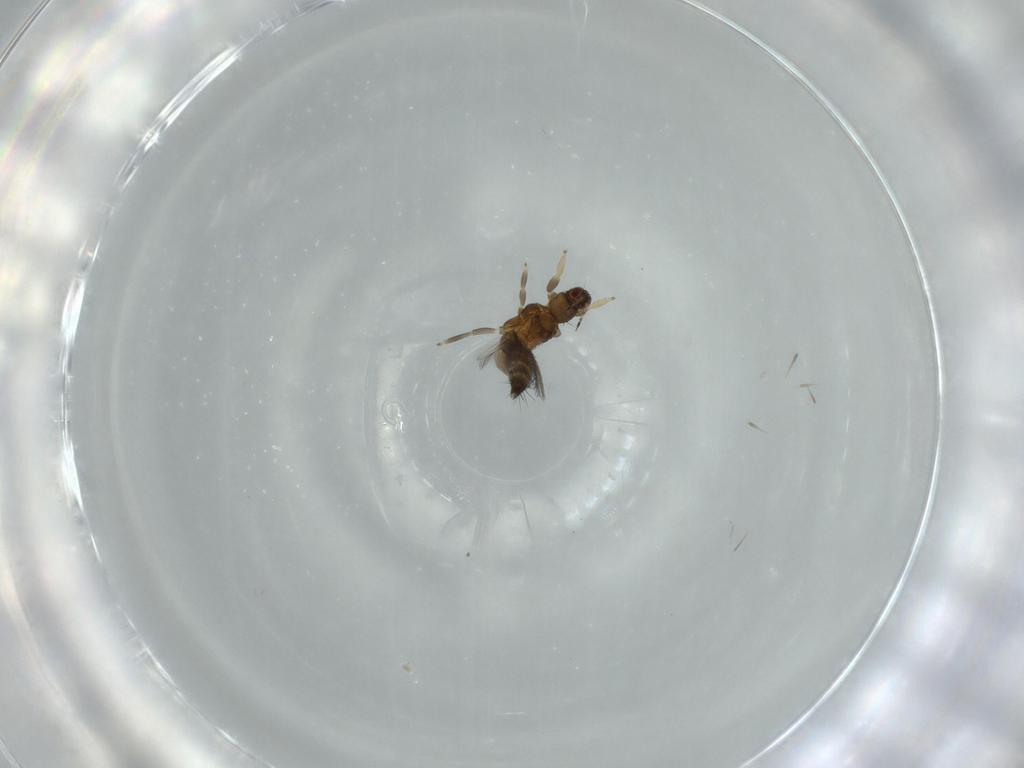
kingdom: Animalia
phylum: Arthropoda
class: Insecta
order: Thysanoptera
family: Thripidae
